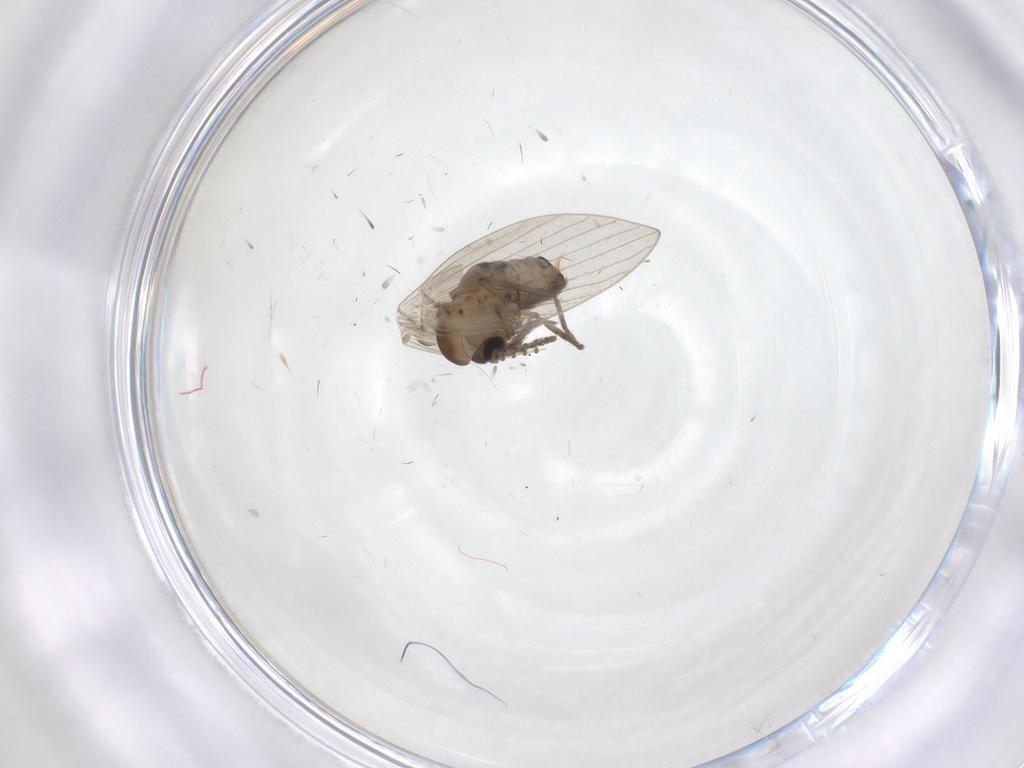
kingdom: Animalia
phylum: Arthropoda
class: Insecta
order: Diptera
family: Psychodidae
